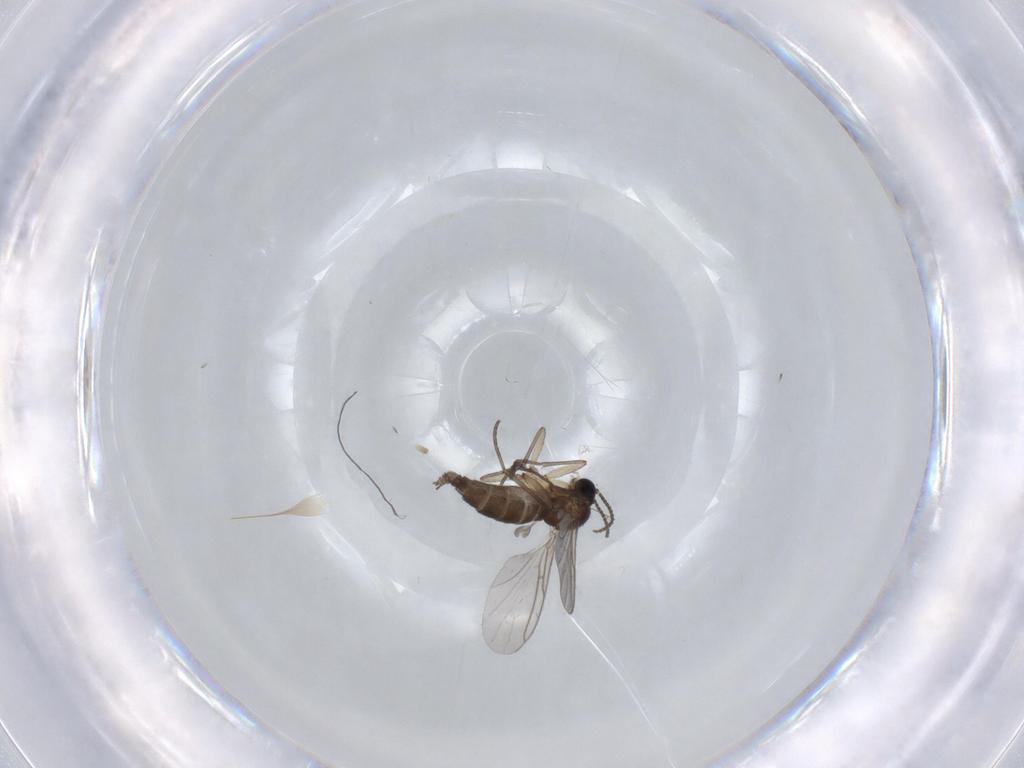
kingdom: Animalia
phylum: Arthropoda
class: Insecta
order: Diptera
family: Sciaridae
